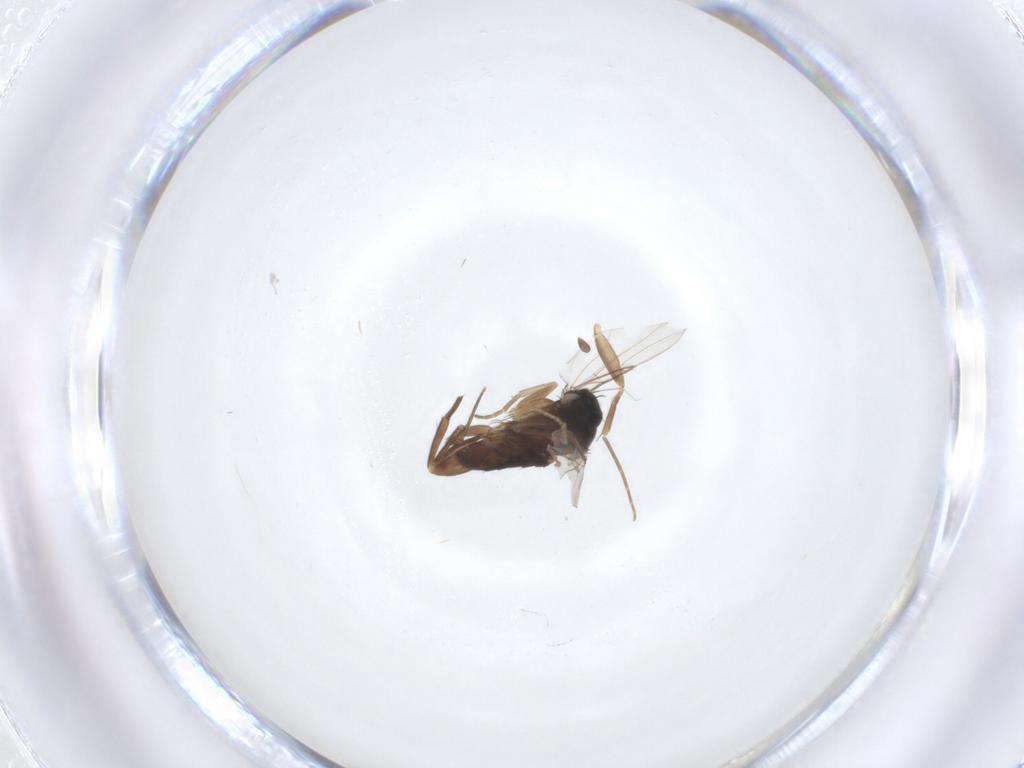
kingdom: Animalia
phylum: Arthropoda
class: Insecta
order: Diptera
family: Phoridae
